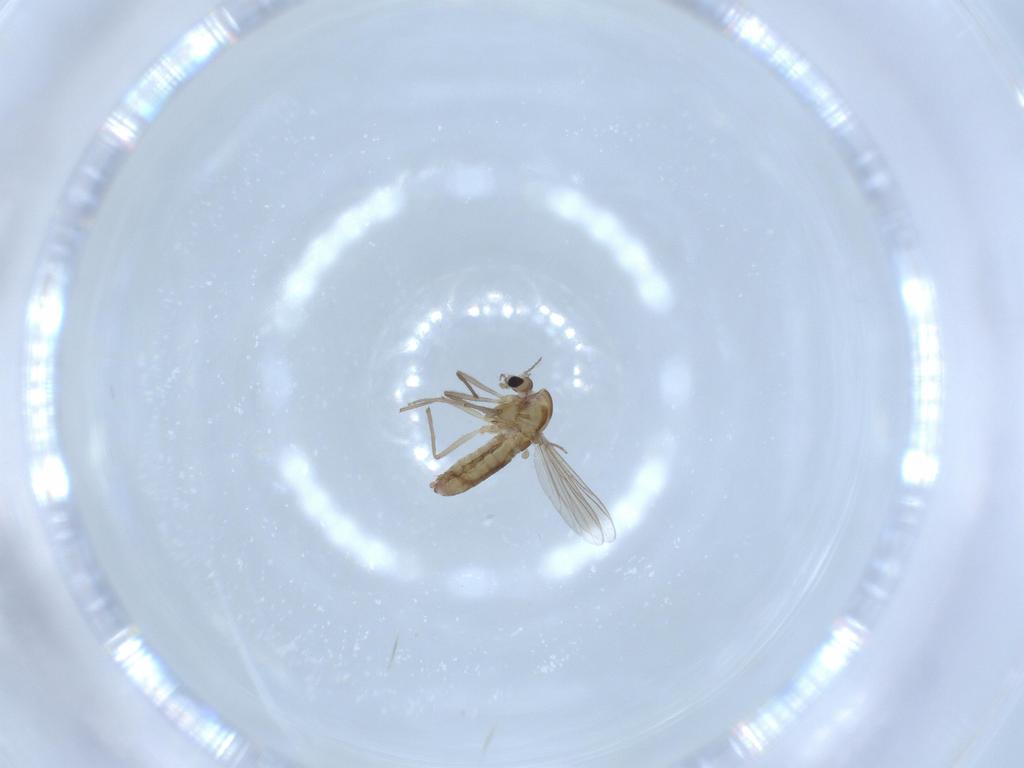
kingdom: Animalia
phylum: Arthropoda
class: Insecta
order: Diptera
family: Chironomidae
